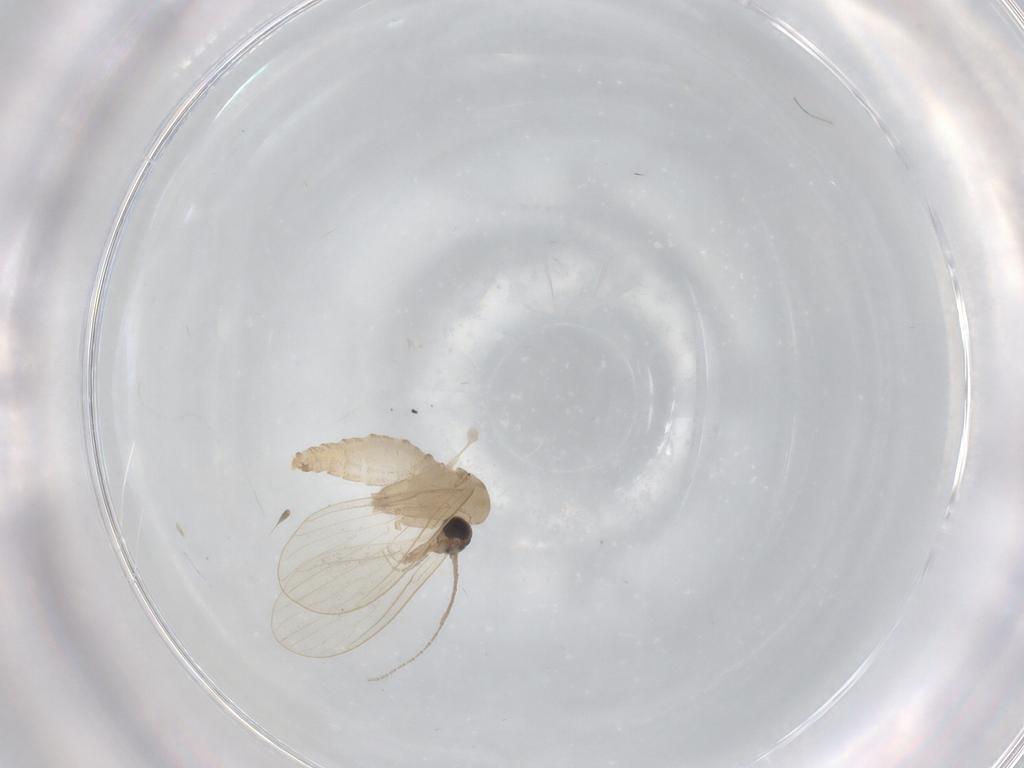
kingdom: Animalia
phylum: Arthropoda
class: Insecta
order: Diptera
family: Psychodidae
